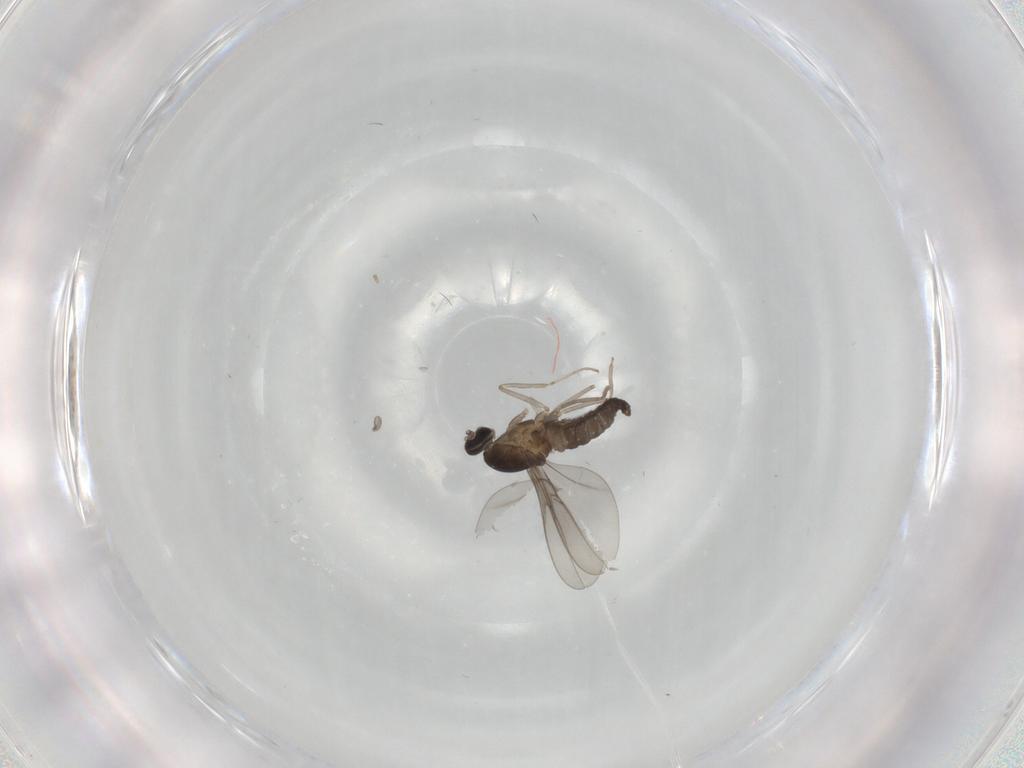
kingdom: Animalia
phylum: Arthropoda
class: Insecta
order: Diptera
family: Cecidomyiidae
